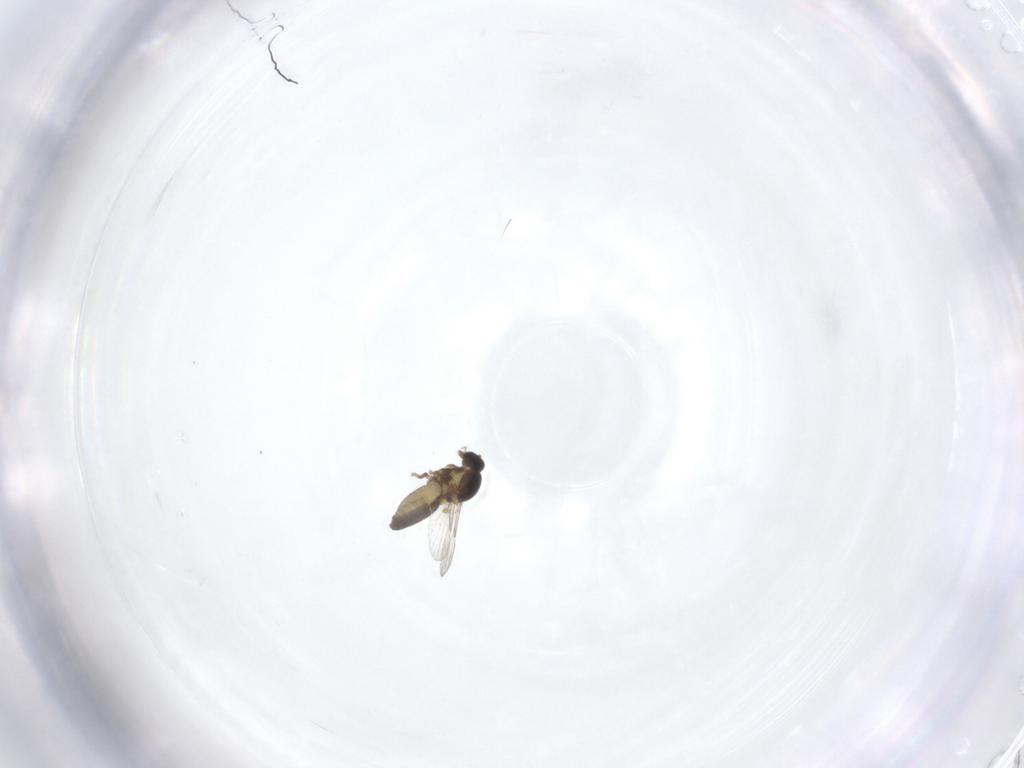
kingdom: Animalia
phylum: Arthropoda
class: Insecta
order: Diptera
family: Ceratopogonidae
